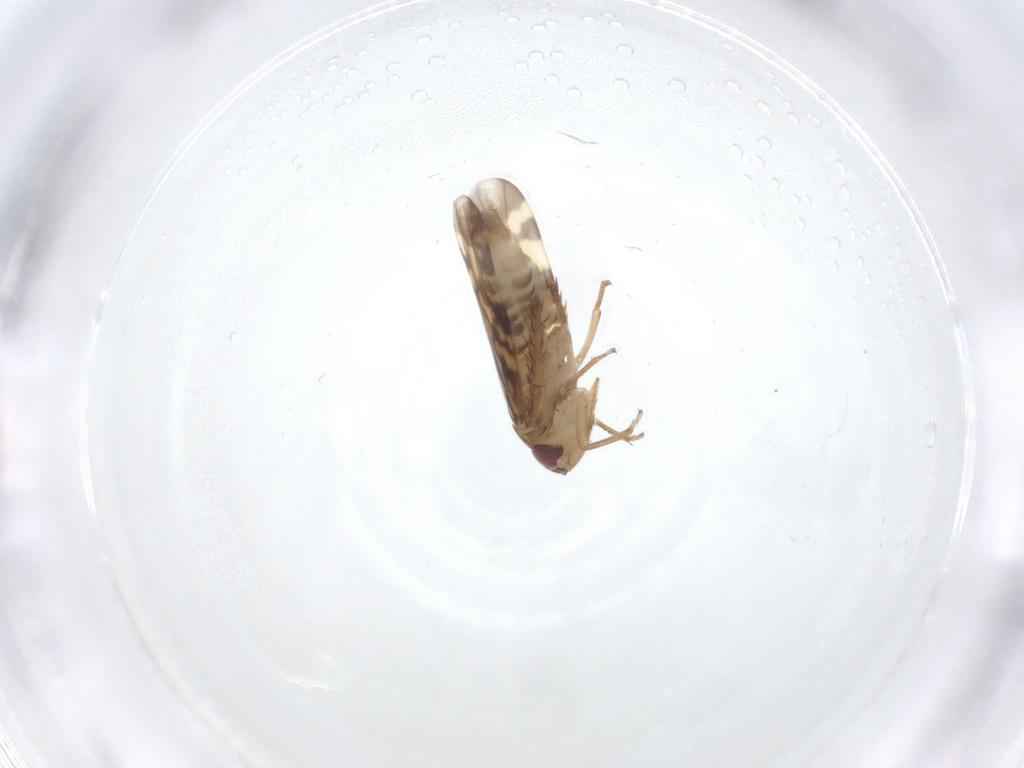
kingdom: Animalia
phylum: Arthropoda
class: Insecta
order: Hemiptera
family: Cicadellidae
